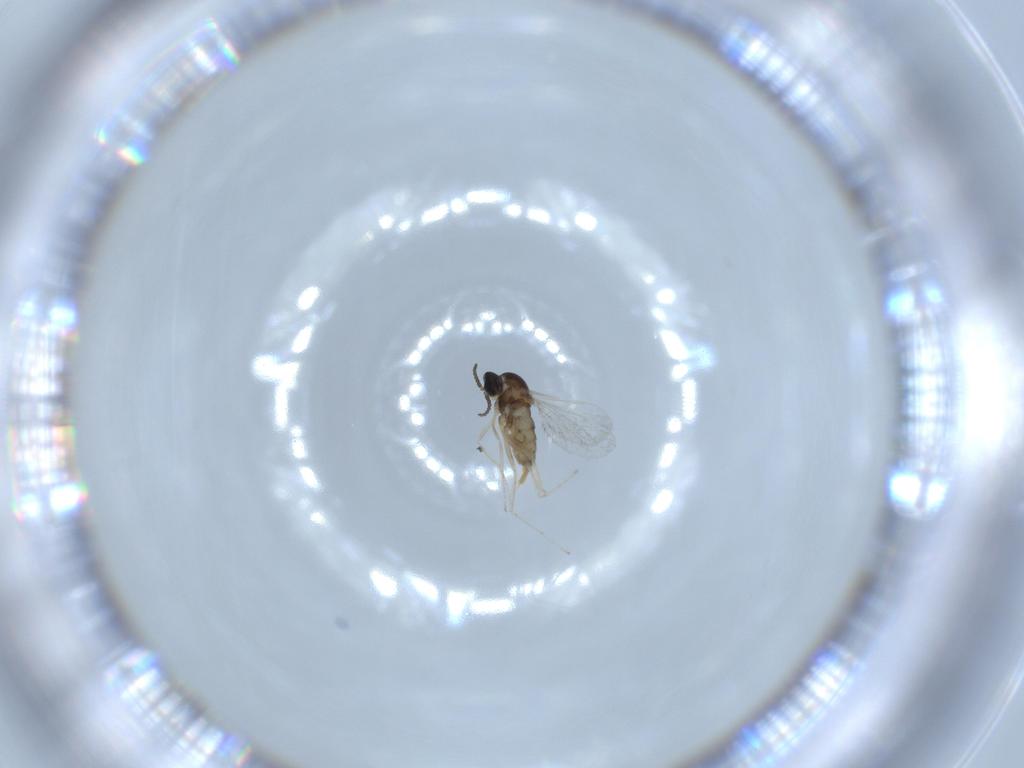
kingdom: Animalia
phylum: Arthropoda
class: Insecta
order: Diptera
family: Cecidomyiidae
